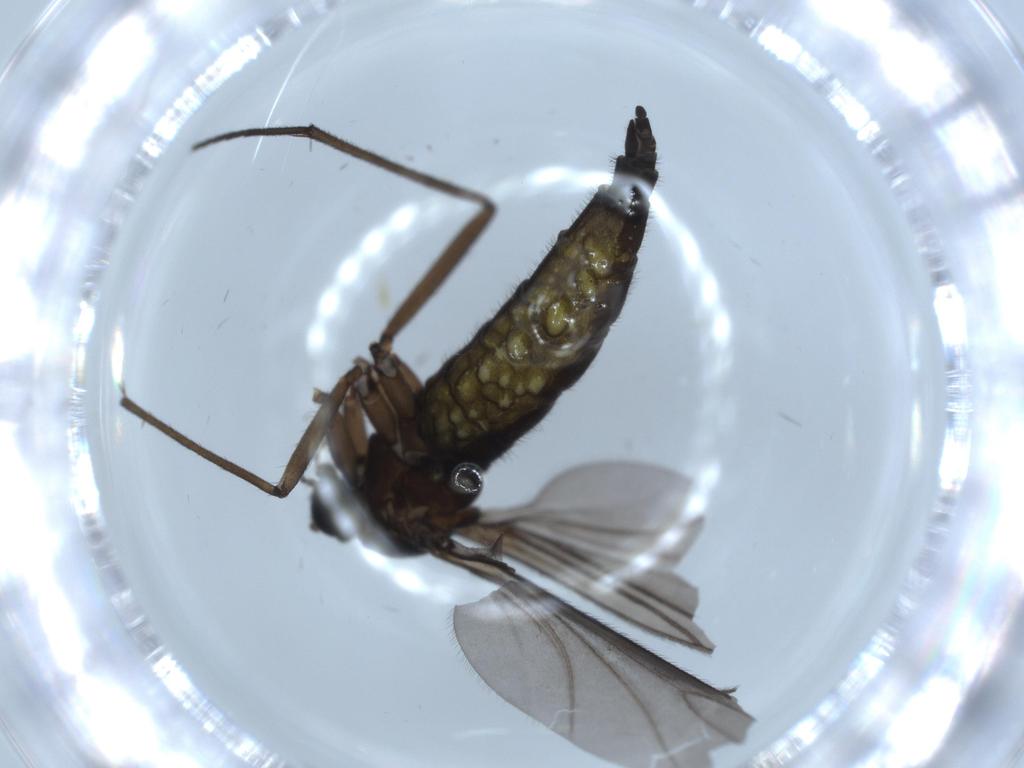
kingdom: Animalia
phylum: Arthropoda
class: Insecta
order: Diptera
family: Sciaridae
